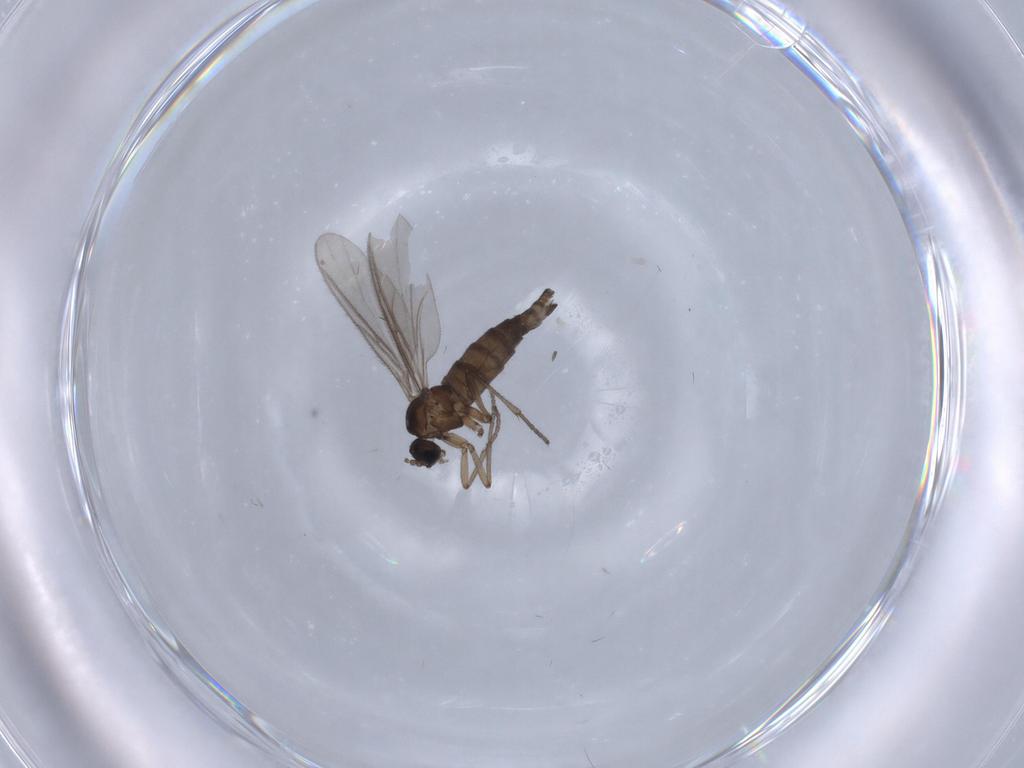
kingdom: Animalia
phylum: Arthropoda
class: Insecta
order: Diptera
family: Sciaridae
